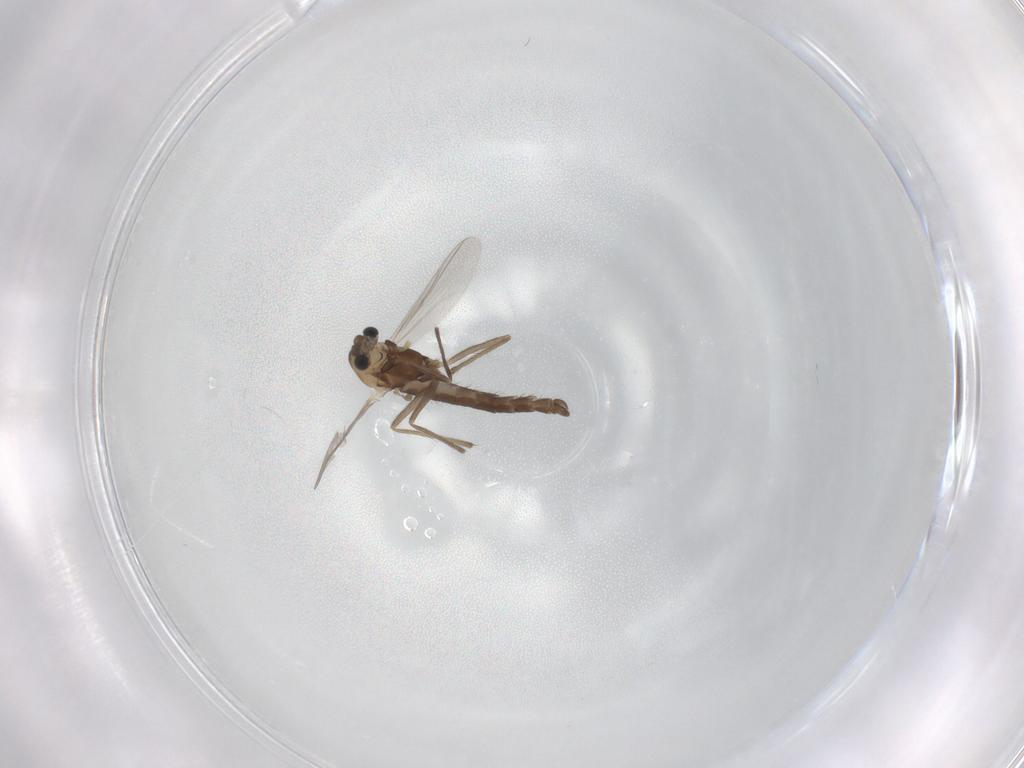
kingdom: Animalia
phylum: Arthropoda
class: Insecta
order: Diptera
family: Chironomidae
